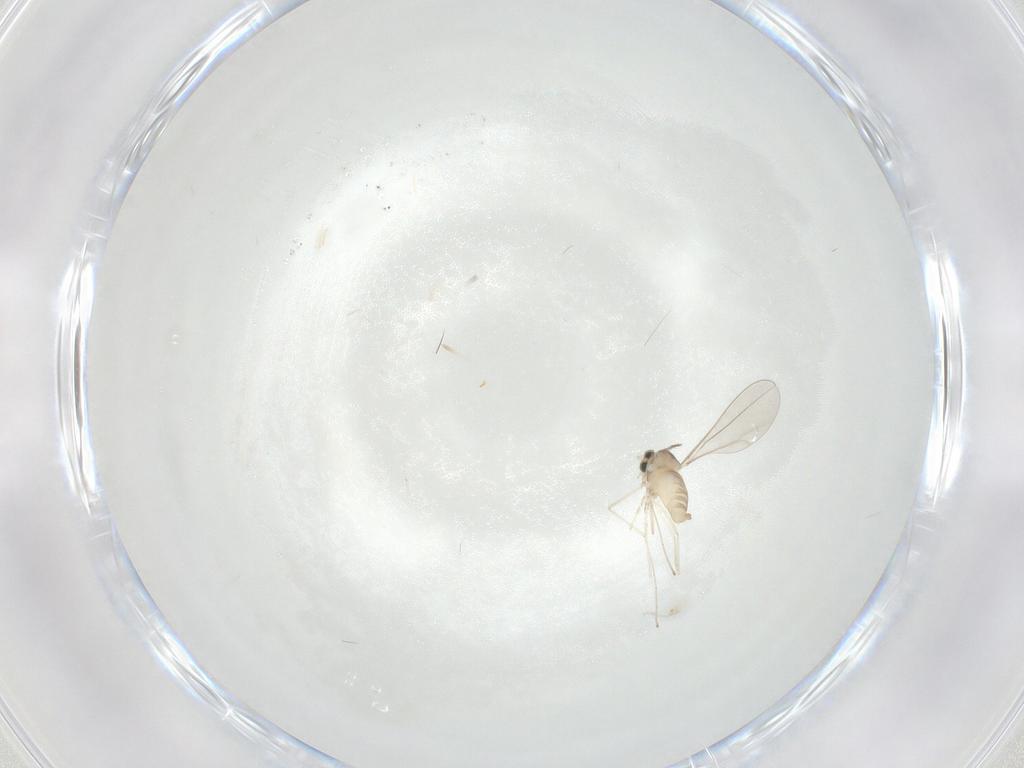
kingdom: Animalia
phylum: Arthropoda
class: Insecta
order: Diptera
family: Cecidomyiidae
